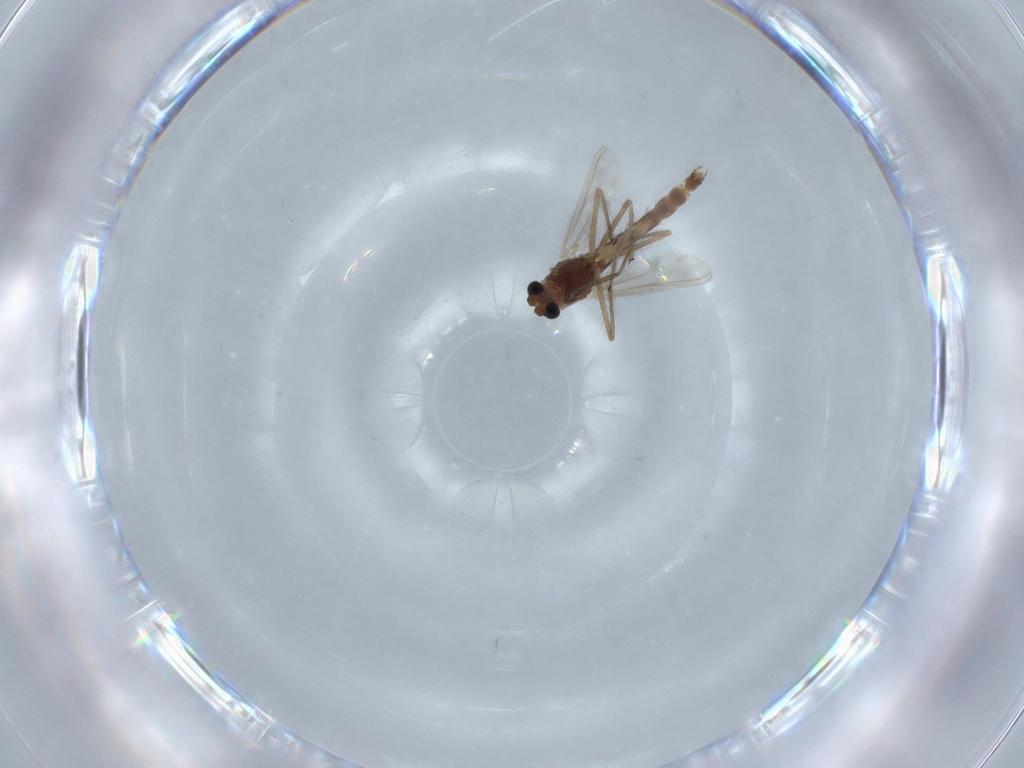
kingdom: Animalia
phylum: Arthropoda
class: Insecta
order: Diptera
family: Chironomidae
